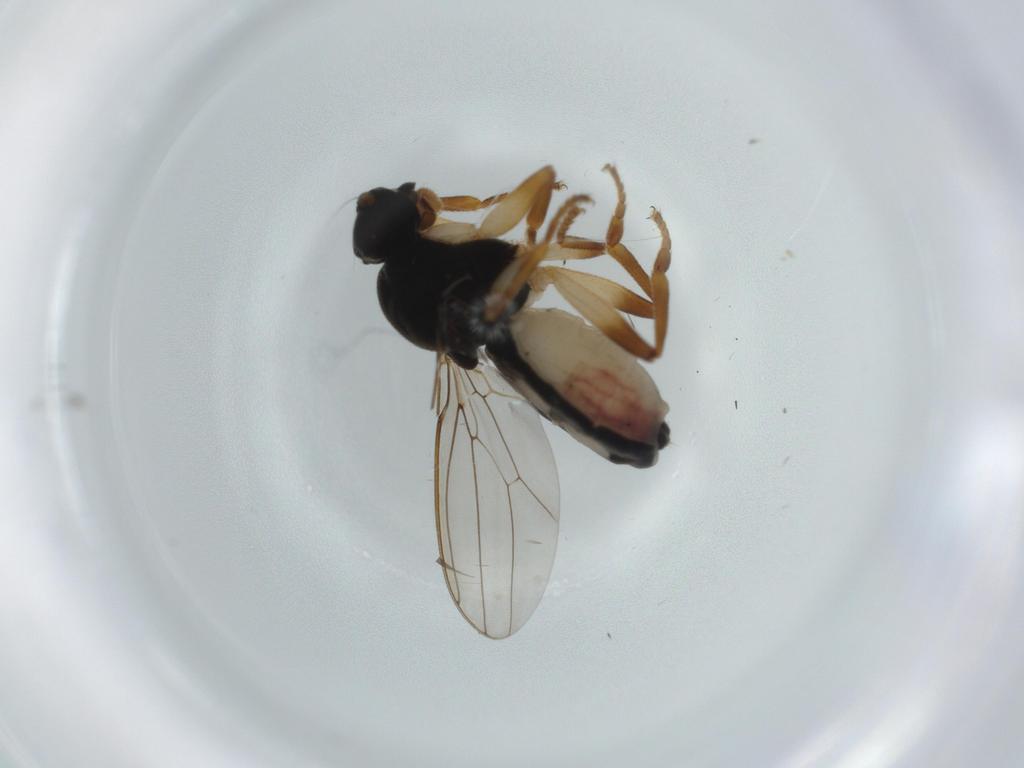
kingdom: Animalia
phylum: Arthropoda
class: Insecta
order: Diptera
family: Sphaeroceridae
